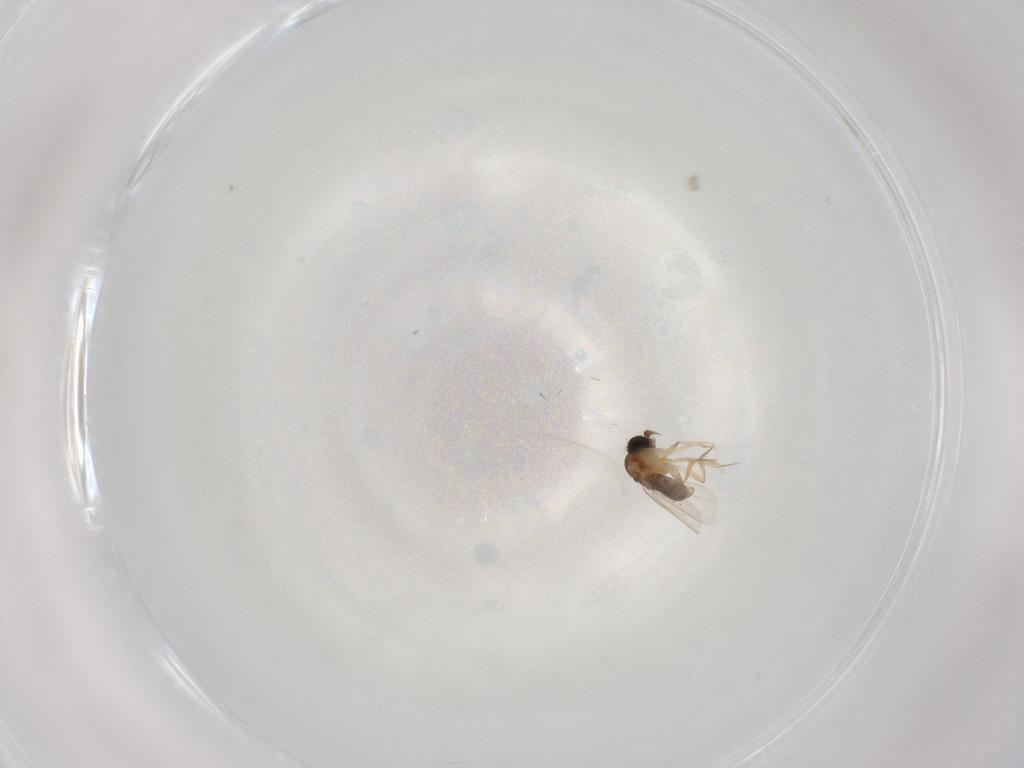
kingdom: Animalia
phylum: Arthropoda
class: Insecta
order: Diptera
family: Phoridae
